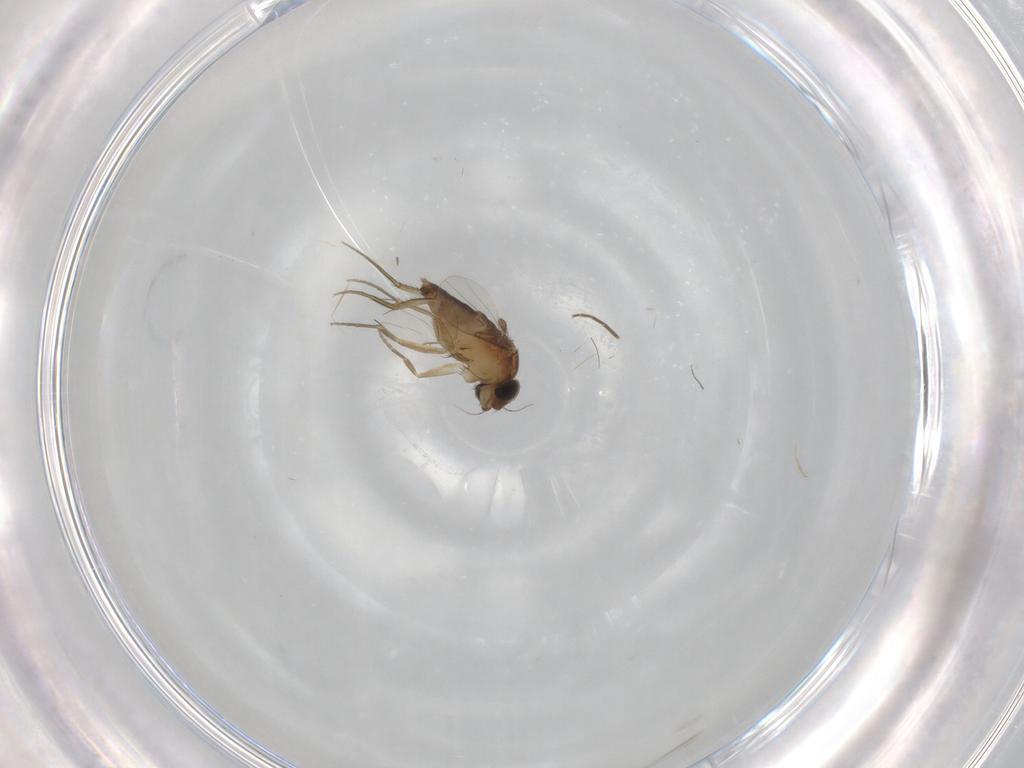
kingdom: Animalia
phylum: Arthropoda
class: Insecta
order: Diptera
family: Phoridae
